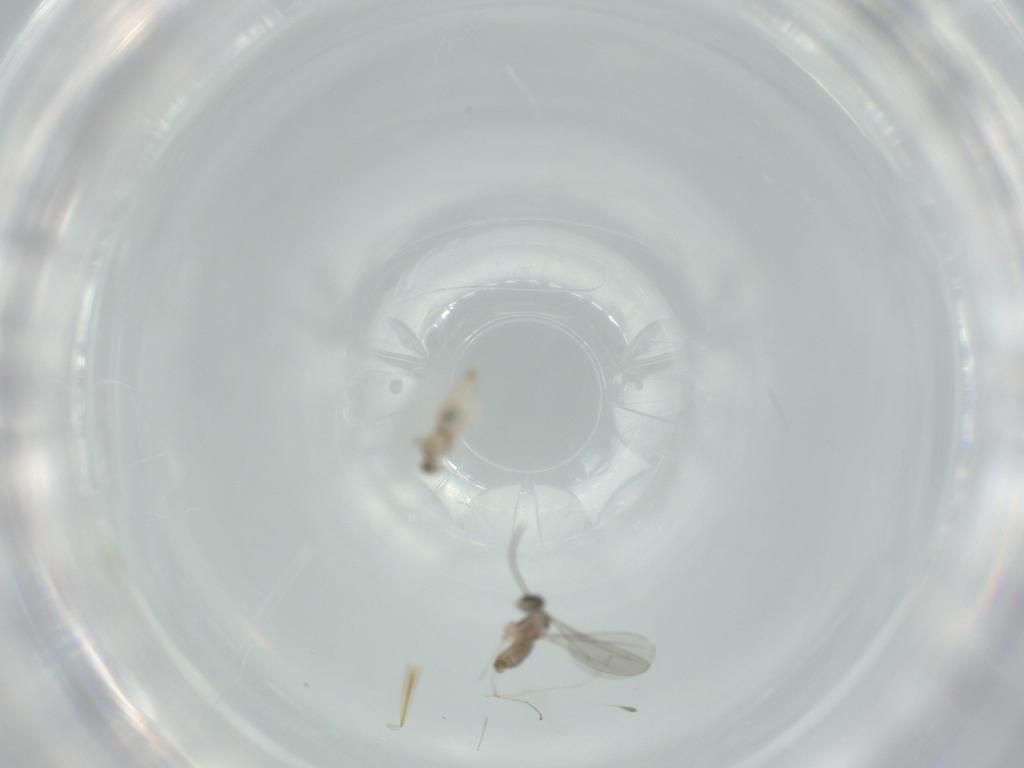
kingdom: Animalia
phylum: Arthropoda
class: Insecta
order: Diptera
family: Cecidomyiidae
